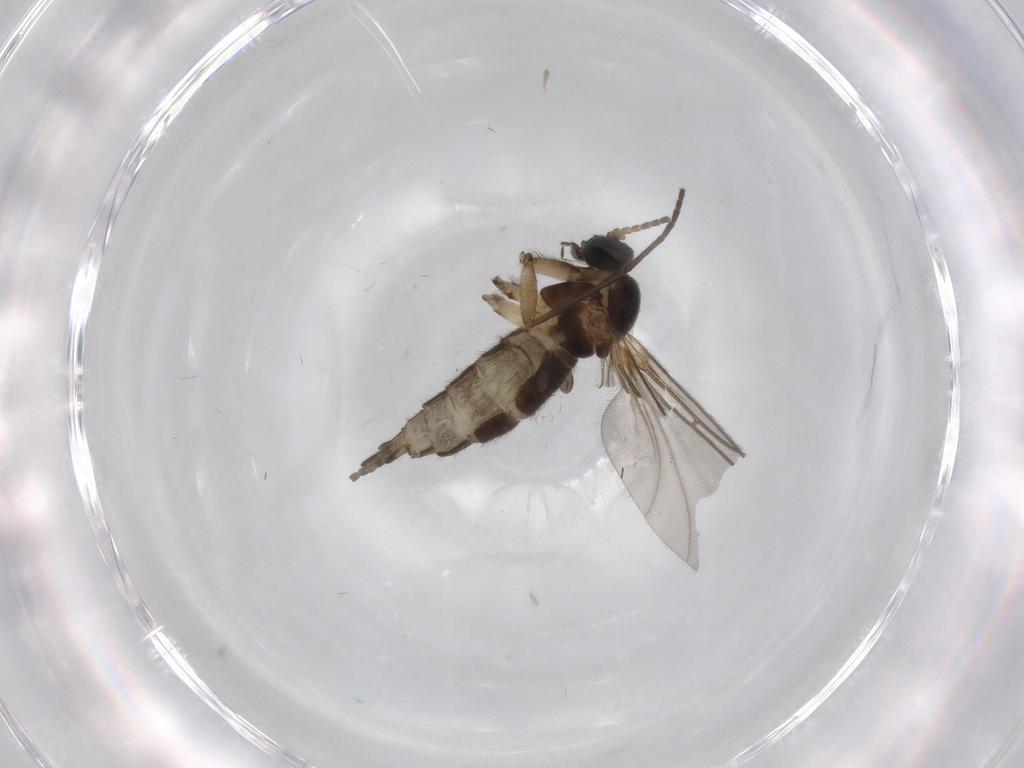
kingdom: Animalia
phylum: Arthropoda
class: Insecta
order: Diptera
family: Sciaridae
